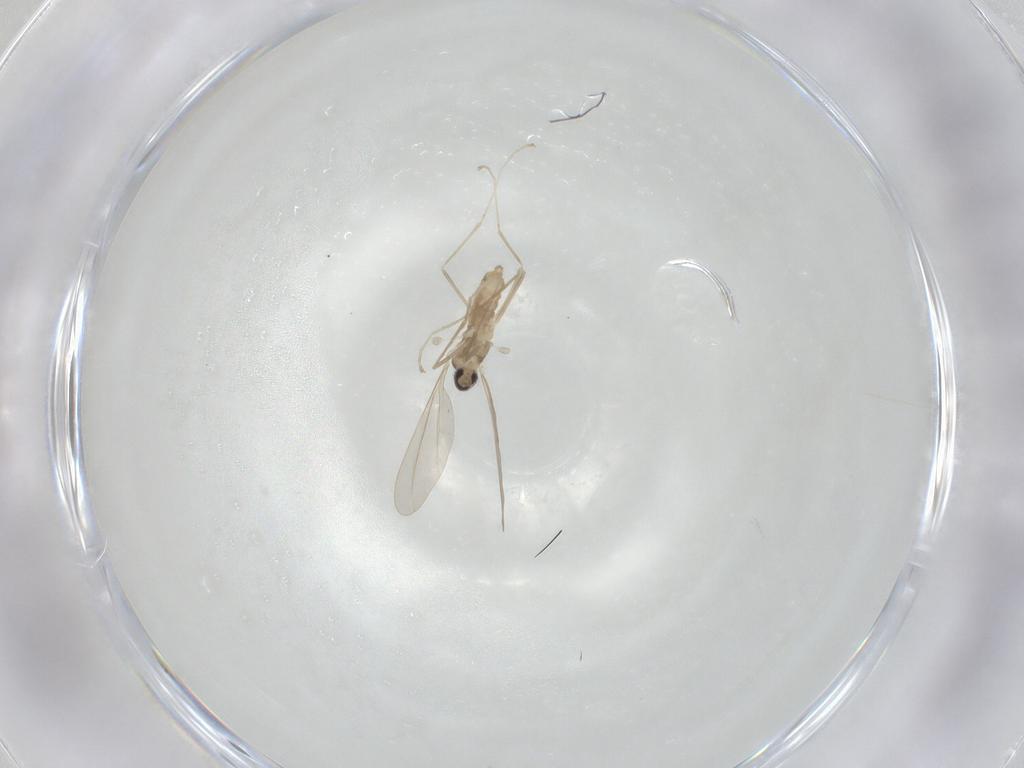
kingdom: Animalia
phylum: Arthropoda
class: Insecta
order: Diptera
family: Cecidomyiidae
